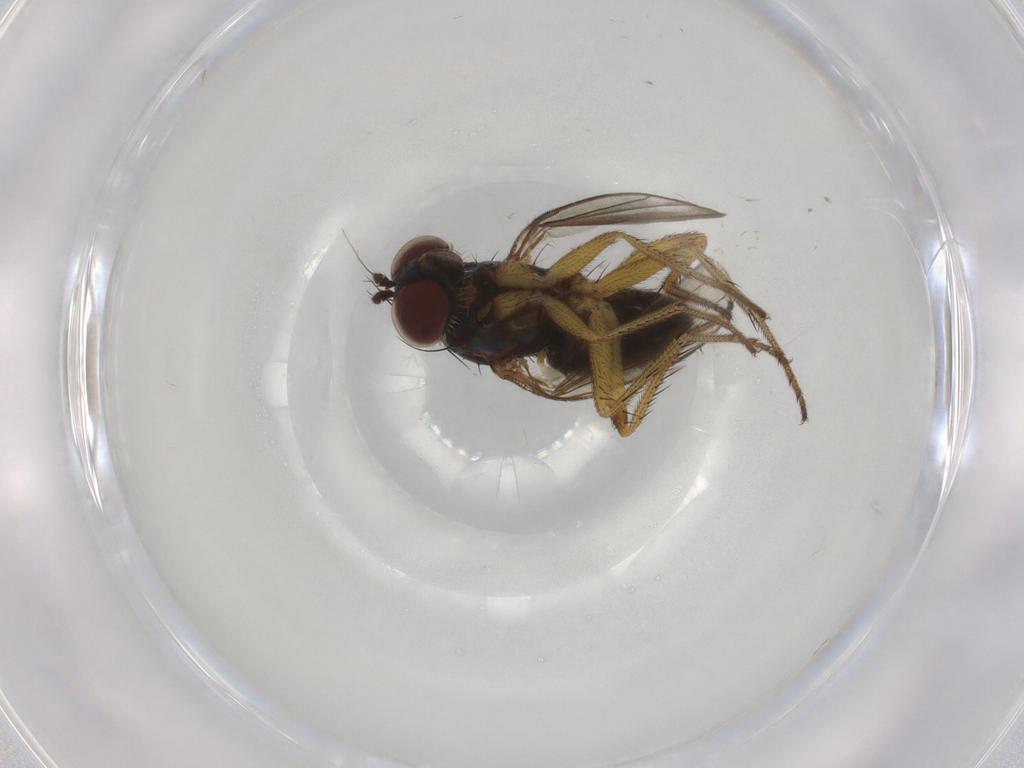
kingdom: Animalia
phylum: Arthropoda
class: Insecta
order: Diptera
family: Dolichopodidae
